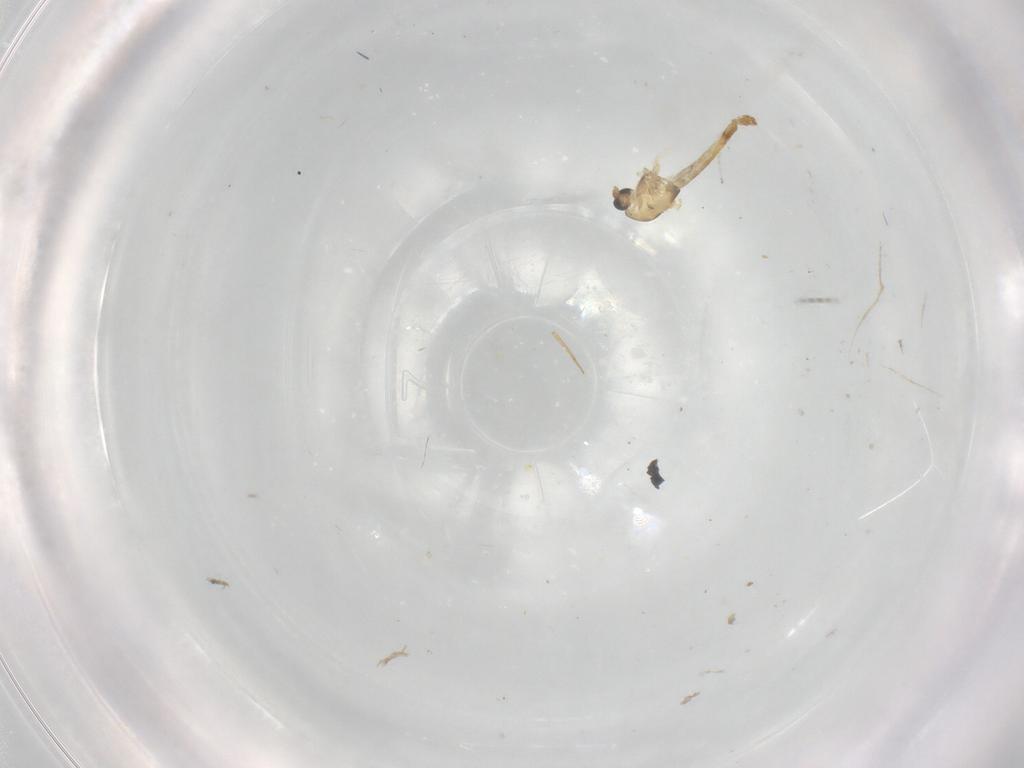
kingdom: Animalia
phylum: Arthropoda
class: Insecta
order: Diptera
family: Chironomidae
